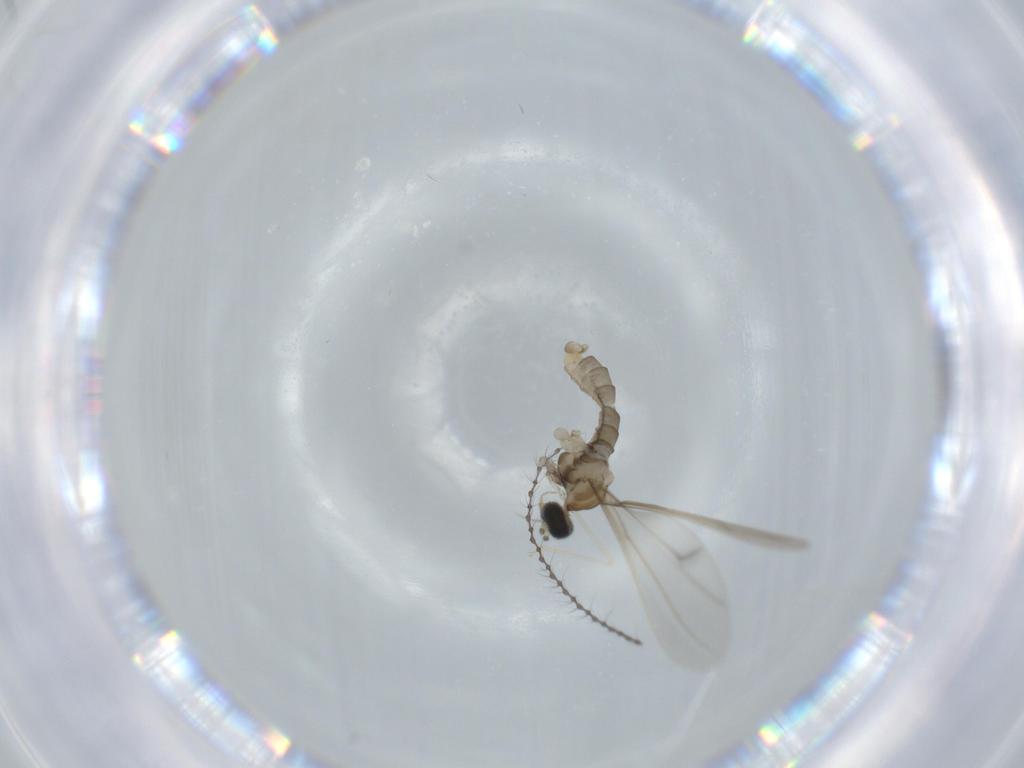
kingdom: Animalia
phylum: Arthropoda
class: Insecta
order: Diptera
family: Cecidomyiidae
